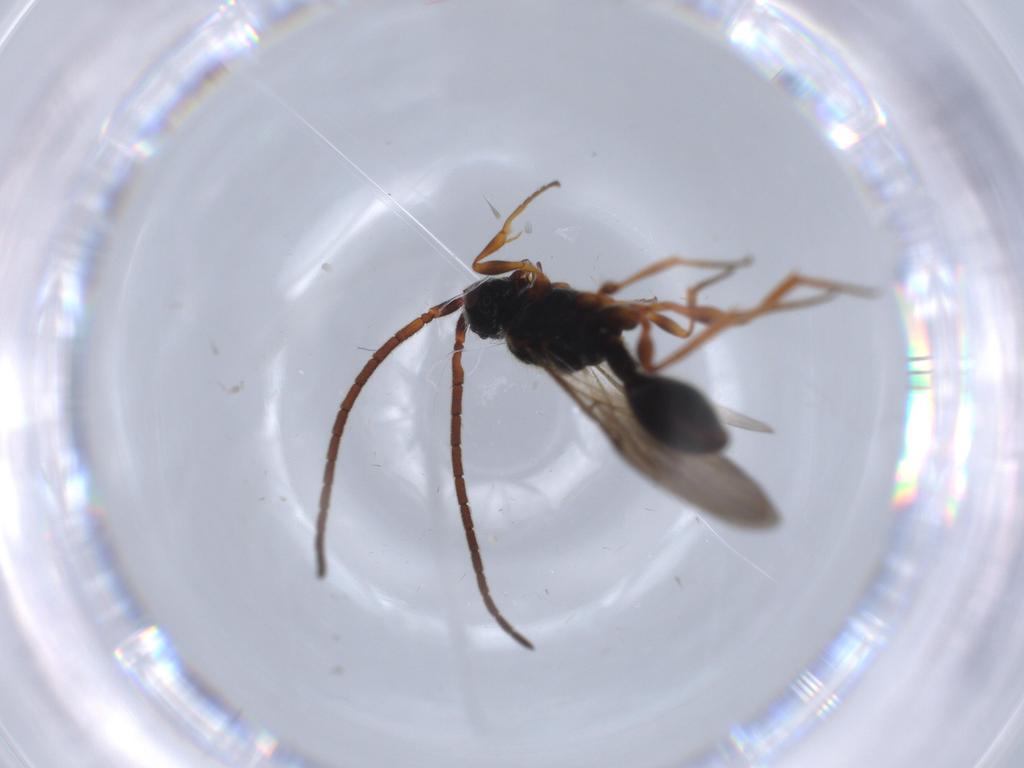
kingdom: Animalia
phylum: Arthropoda
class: Insecta
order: Hymenoptera
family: Diapriidae
